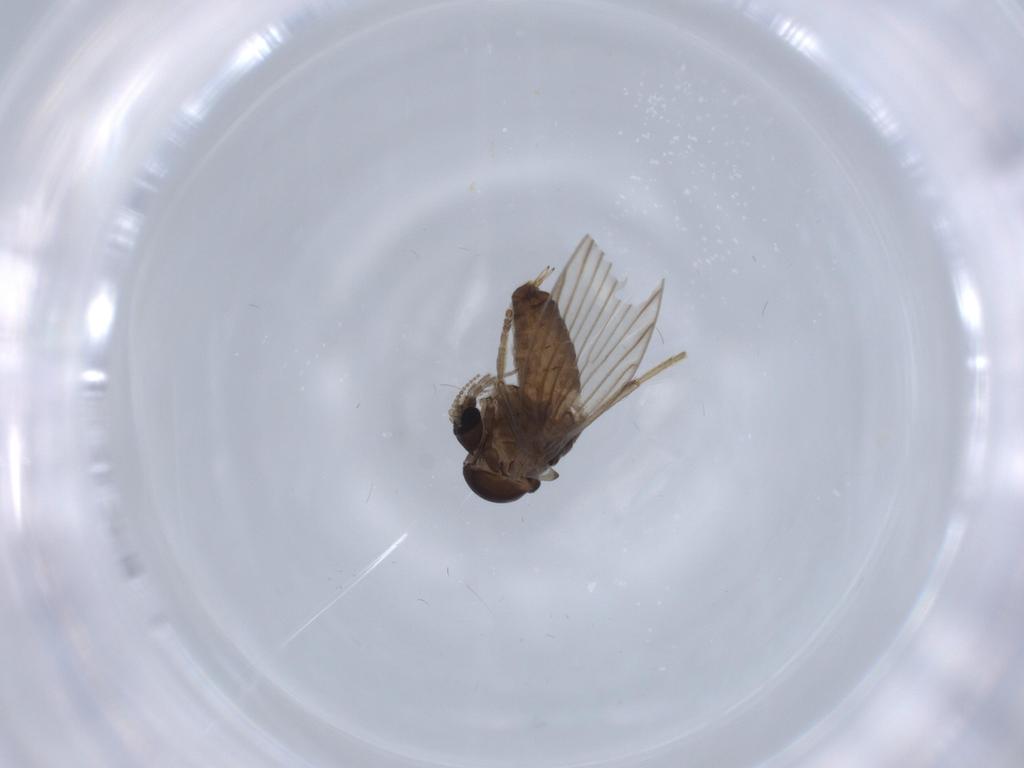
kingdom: Animalia
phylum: Arthropoda
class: Insecta
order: Diptera
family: Psychodidae
